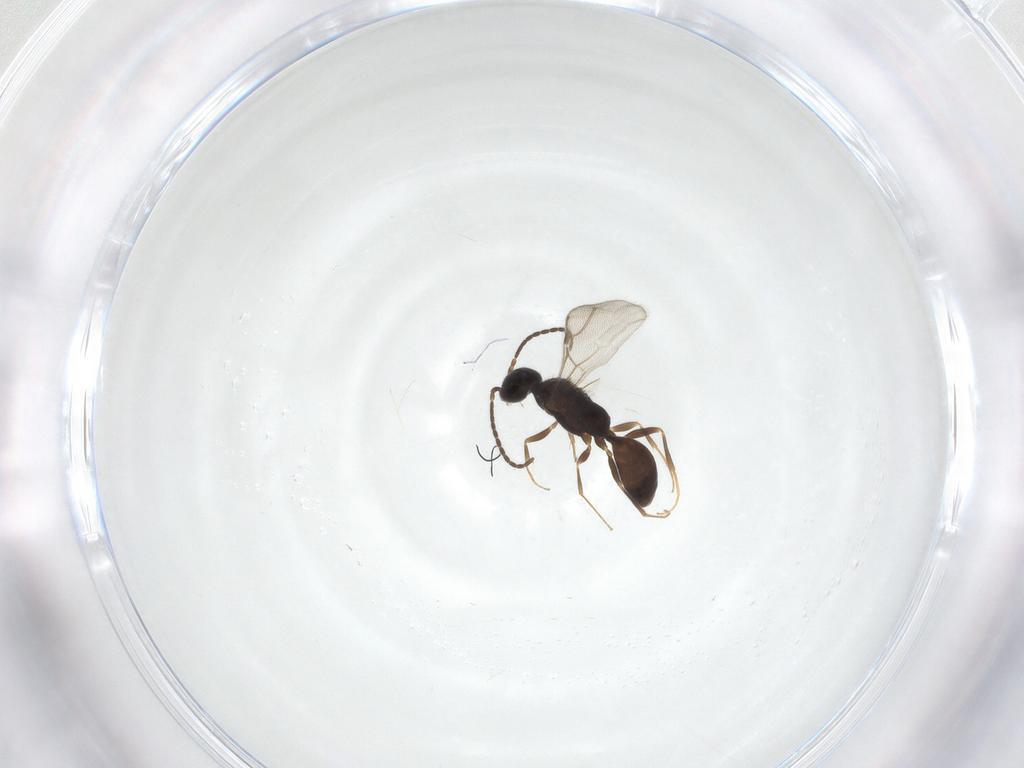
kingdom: Animalia
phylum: Arthropoda
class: Insecta
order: Hymenoptera
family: Bethylidae
